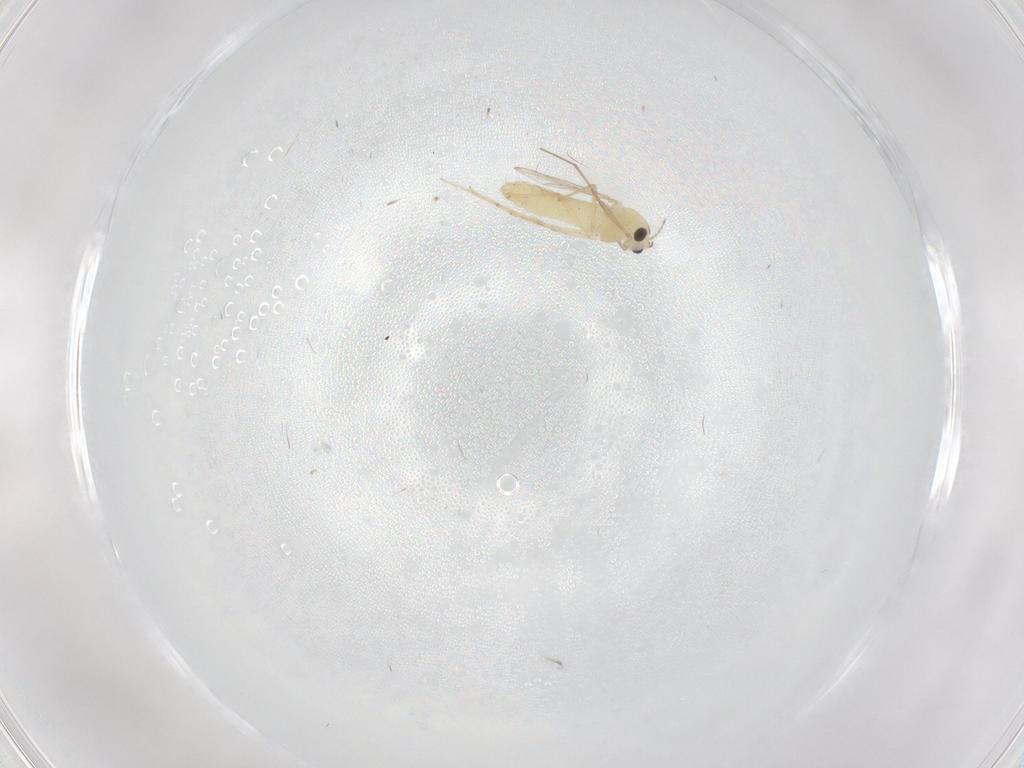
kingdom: Animalia
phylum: Arthropoda
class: Insecta
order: Diptera
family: Chironomidae
